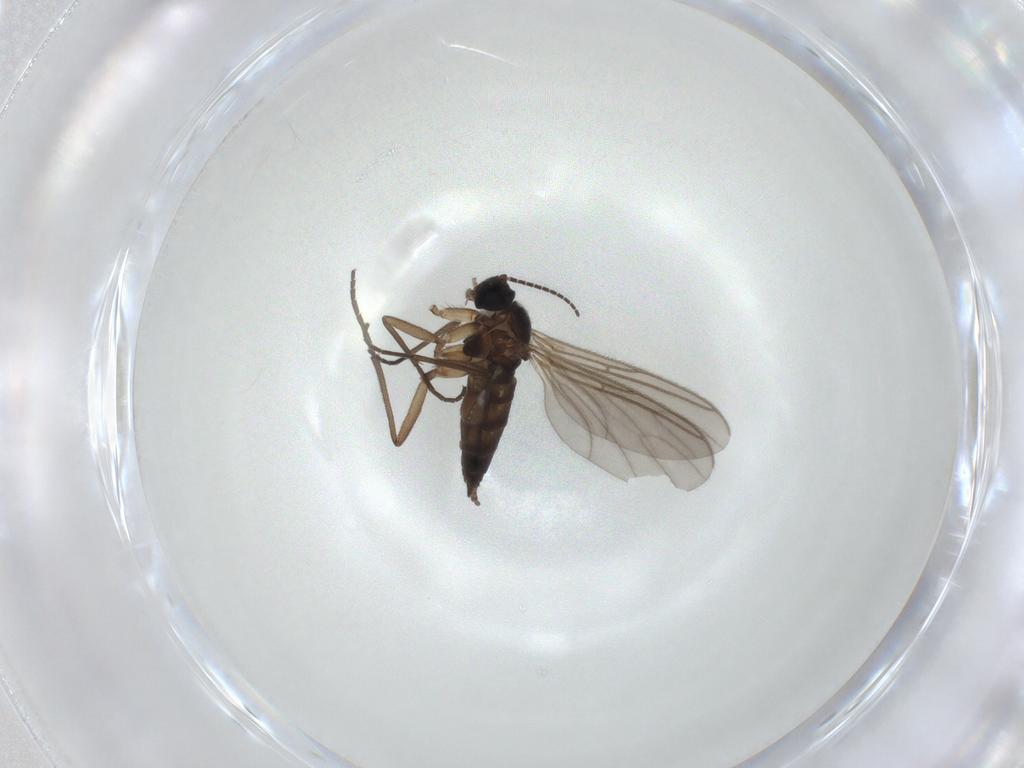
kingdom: Animalia
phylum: Arthropoda
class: Insecta
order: Diptera
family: Sciaridae
